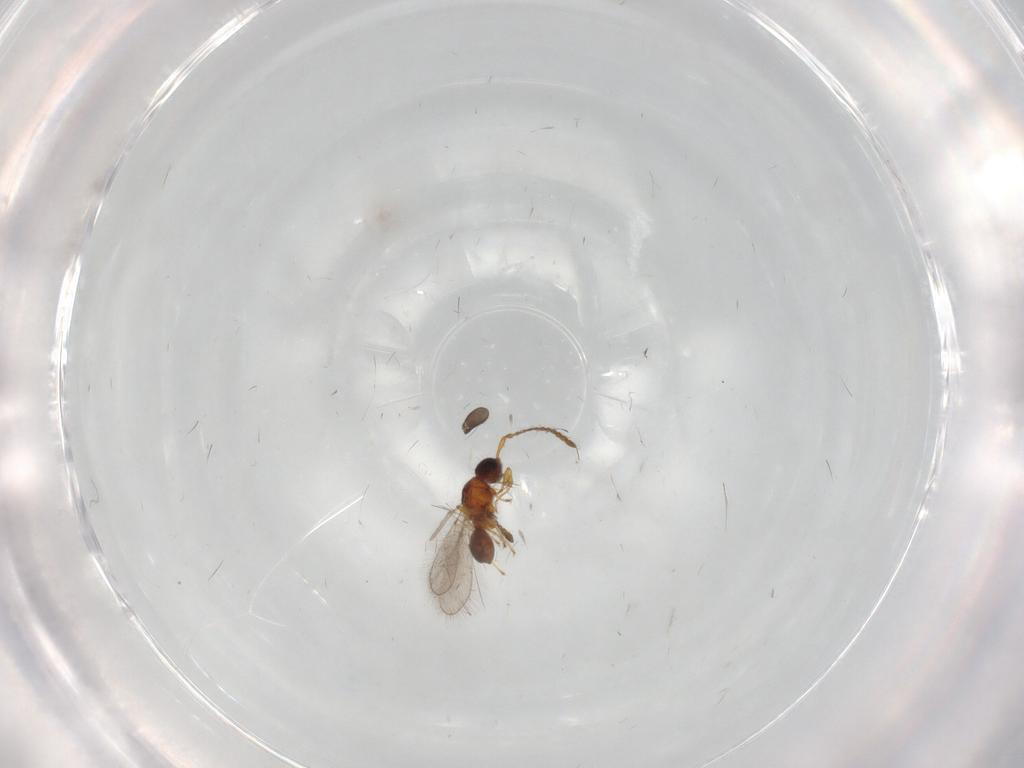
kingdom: Animalia
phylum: Arthropoda
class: Insecta
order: Hymenoptera
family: Diapriidae
